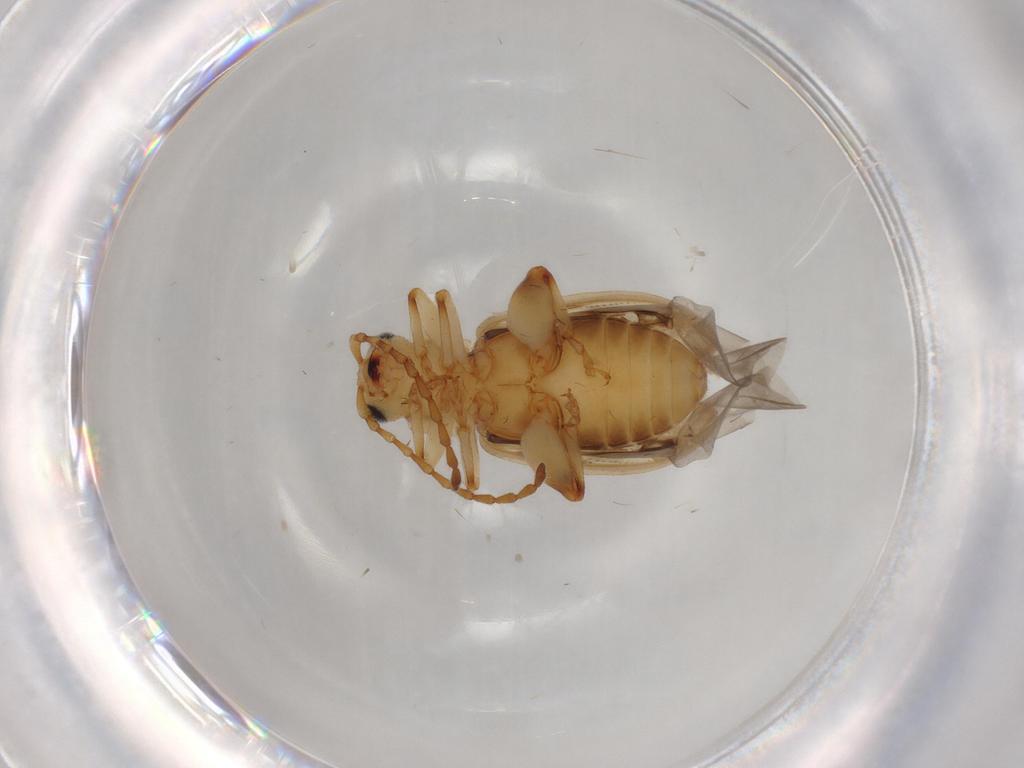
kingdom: Animalia
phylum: Arthropoda
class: Insecta
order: Coleoptera
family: Chrysomelidae
